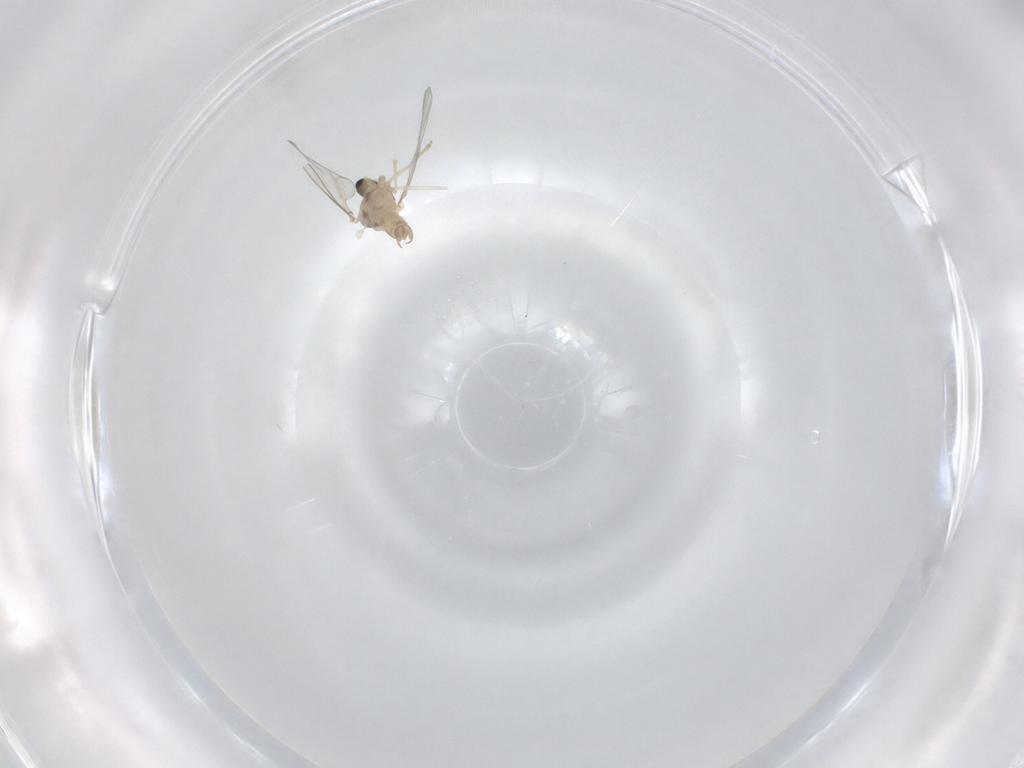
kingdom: Animalia
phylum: Arthropoda
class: Insecta
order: Diptera
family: Cecidomyiidae
